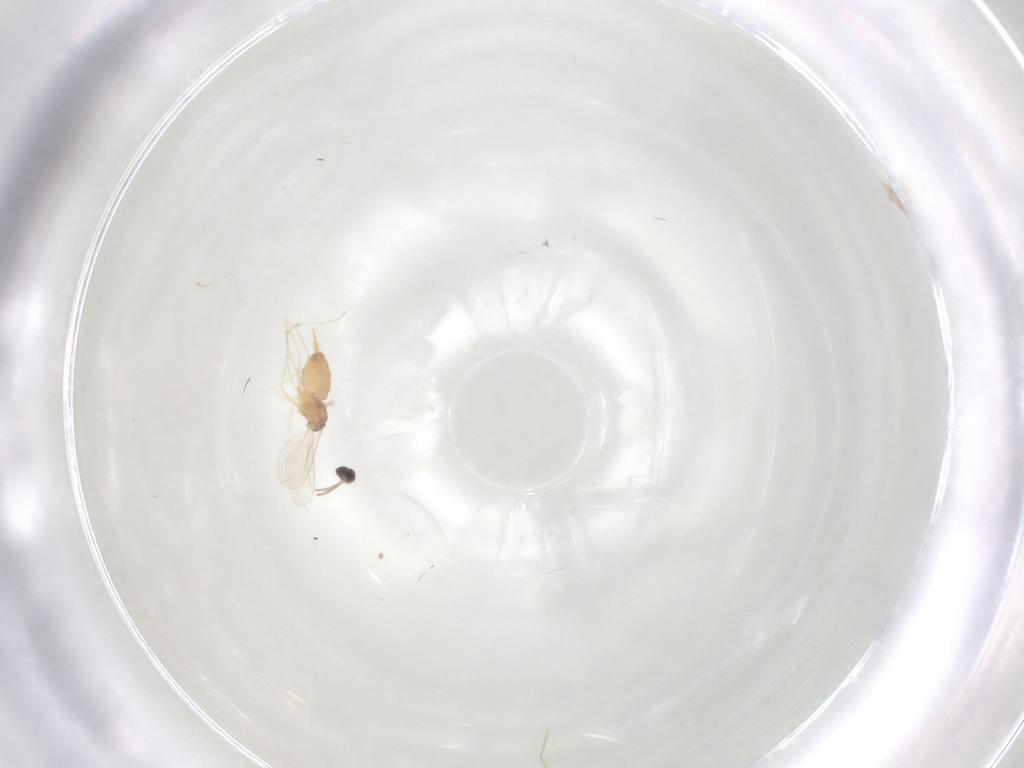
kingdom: Animalia
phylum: Arthropoda
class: Insecta
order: Diptera
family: Cecidomyiidae
